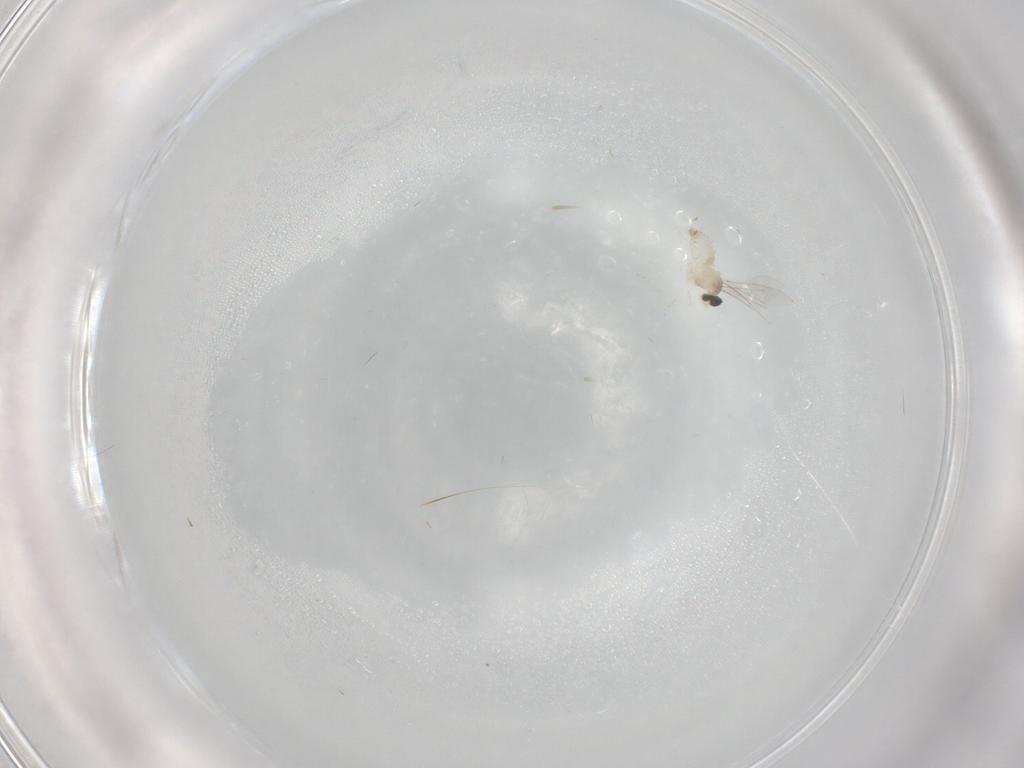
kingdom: Animalia
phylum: Arthropoda
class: Insecta
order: Diptera
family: Cecidomyiidae
